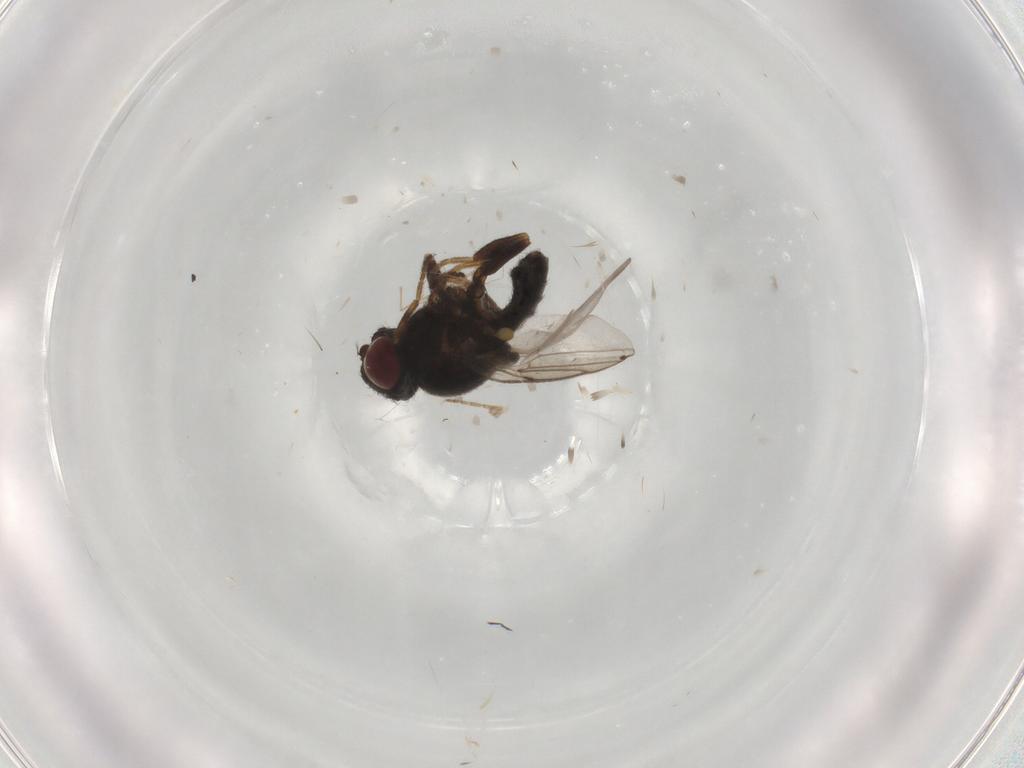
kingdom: Animalia
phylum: Arthropoda
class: Insecta
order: Diptera
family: Chloropidae
